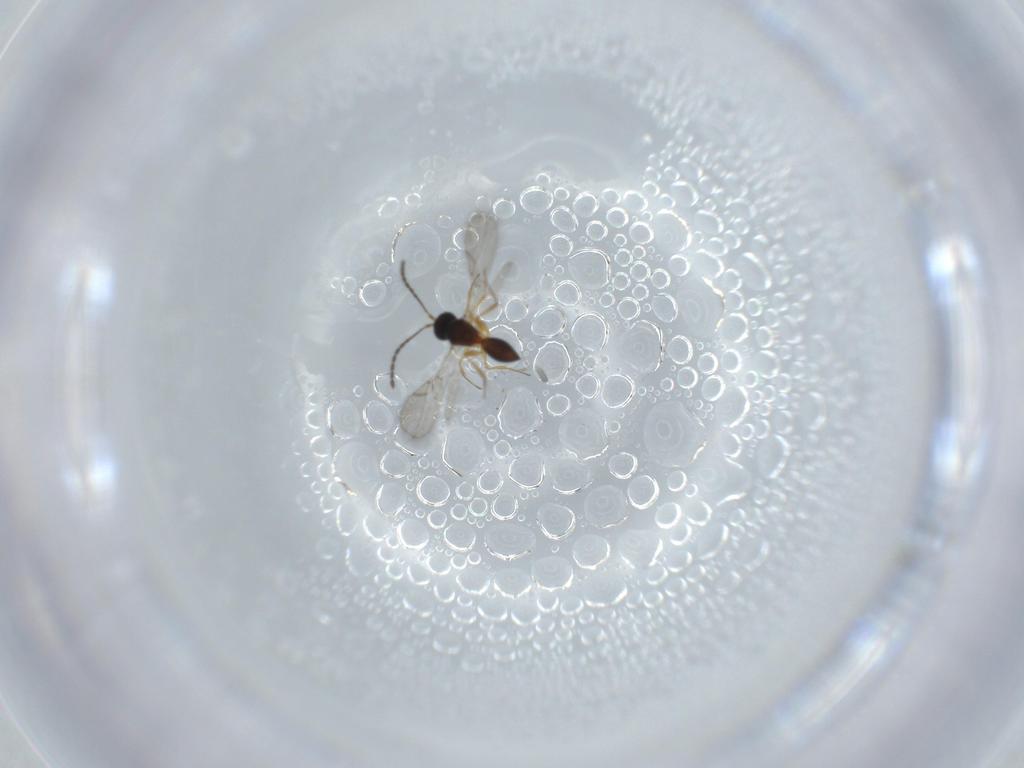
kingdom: Animalia
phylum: Arthropoda
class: Insecta
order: Hymenoptera
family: Figitidae
